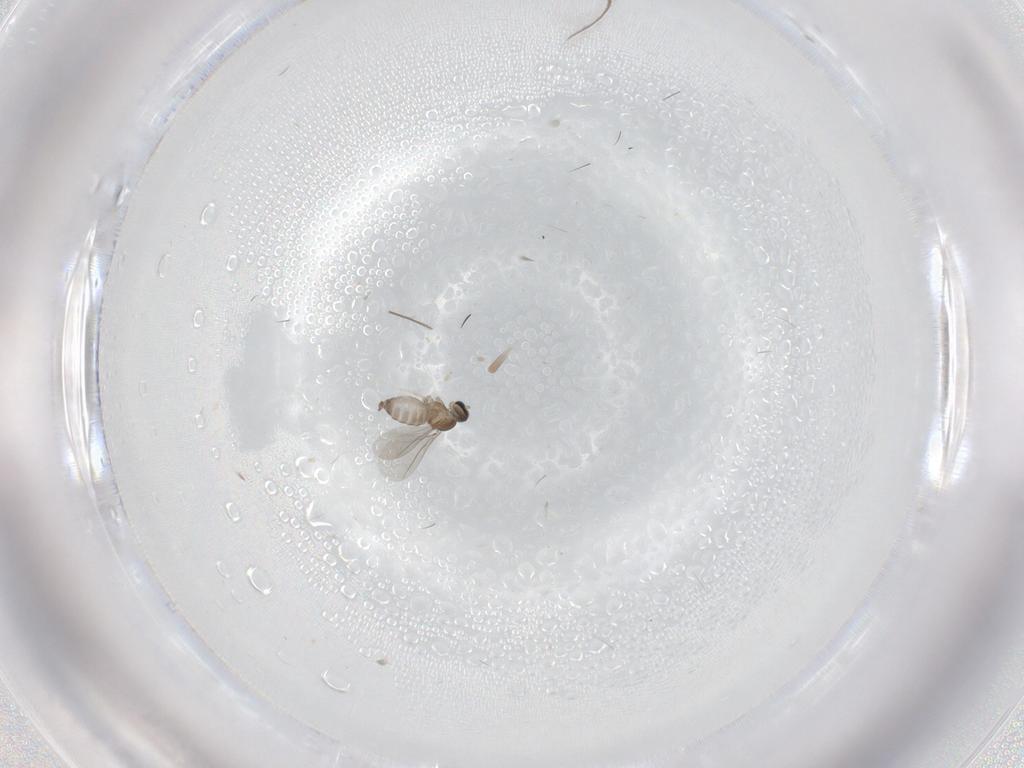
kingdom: Animalia
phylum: Arthropoda
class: Insecta
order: Diptera
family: Cecidomyiidae
